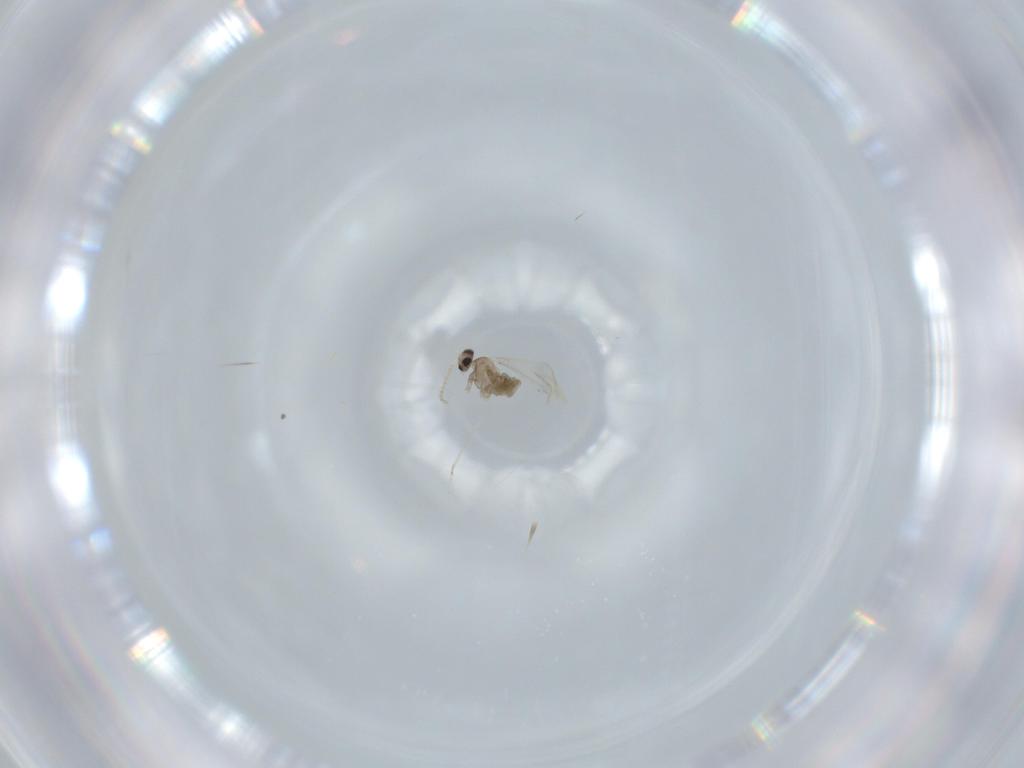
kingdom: Animalia
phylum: Arthropoda
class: Insecta
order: Diptera
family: Cecidomyiidae
